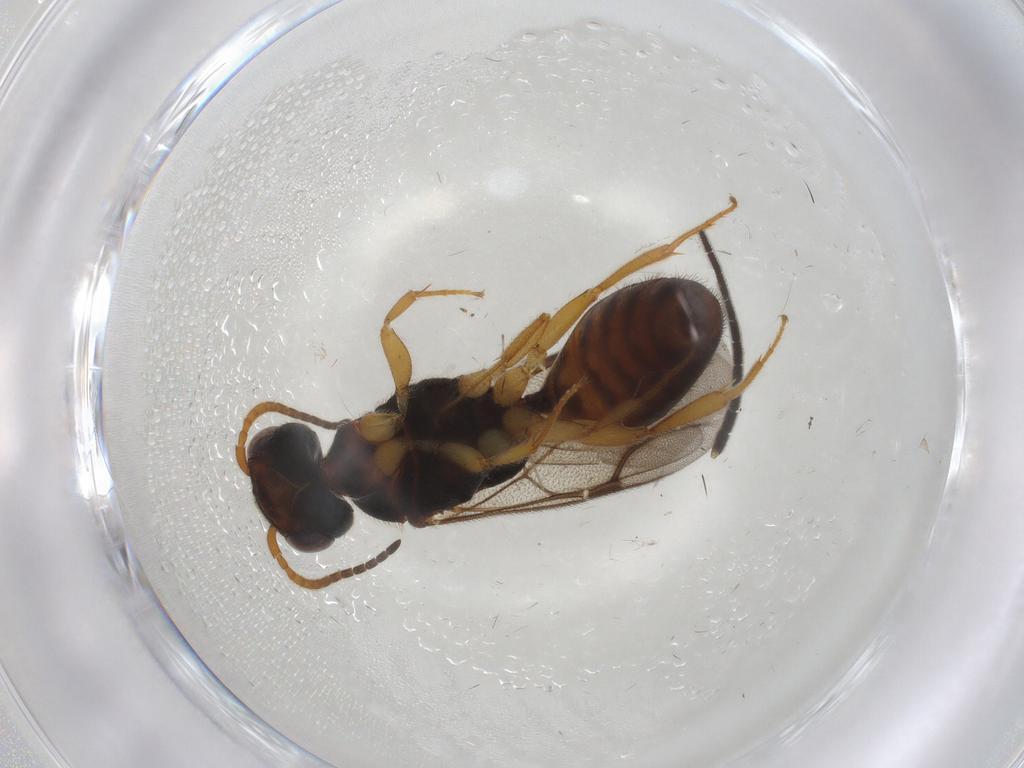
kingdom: Animalia
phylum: Arthropoda
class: Insecta
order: Hymenoptera
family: Bethylidae
